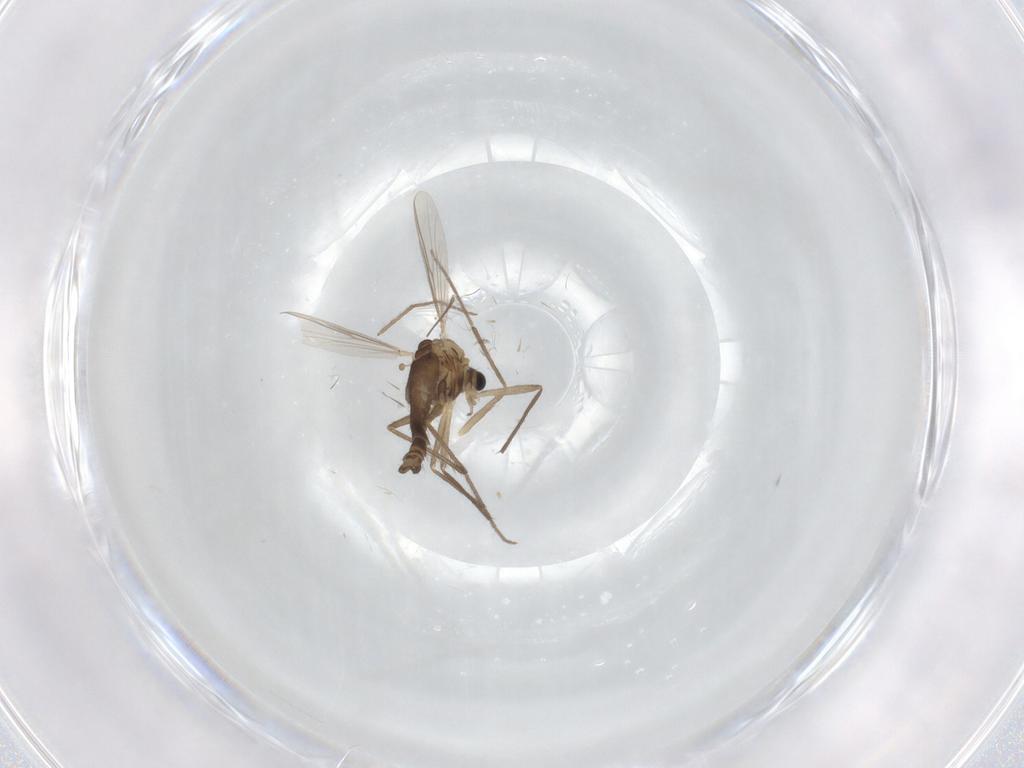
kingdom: Animalia
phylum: Arthropoda
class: Insecta
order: Diptera
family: Chironomidae
